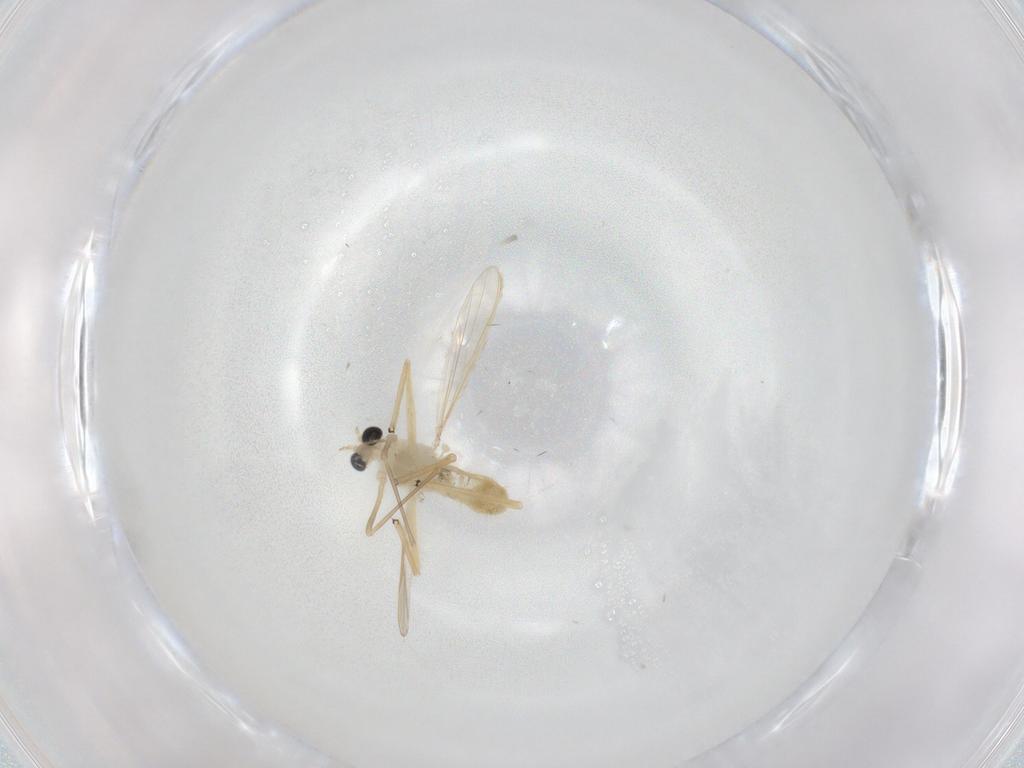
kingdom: Animalia
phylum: Arthropoda
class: Insecta
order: Diptera
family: Chironomidae
